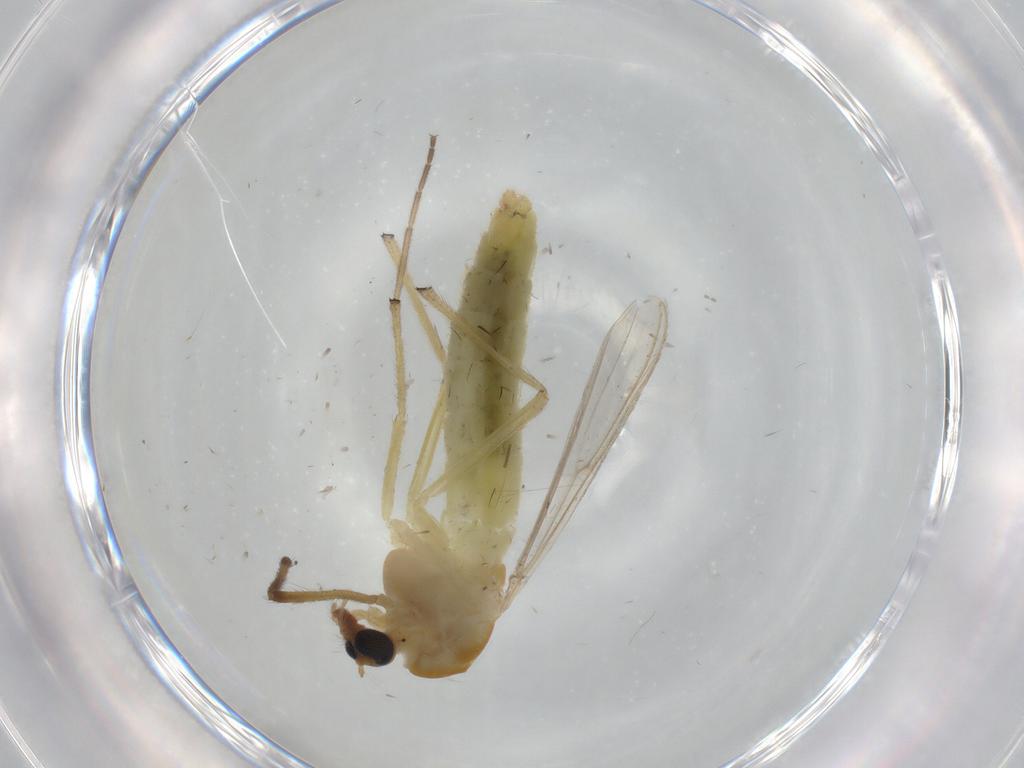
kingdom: Animalia
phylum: Arthropoda
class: Insecta
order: Diptera
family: Chironomidae
